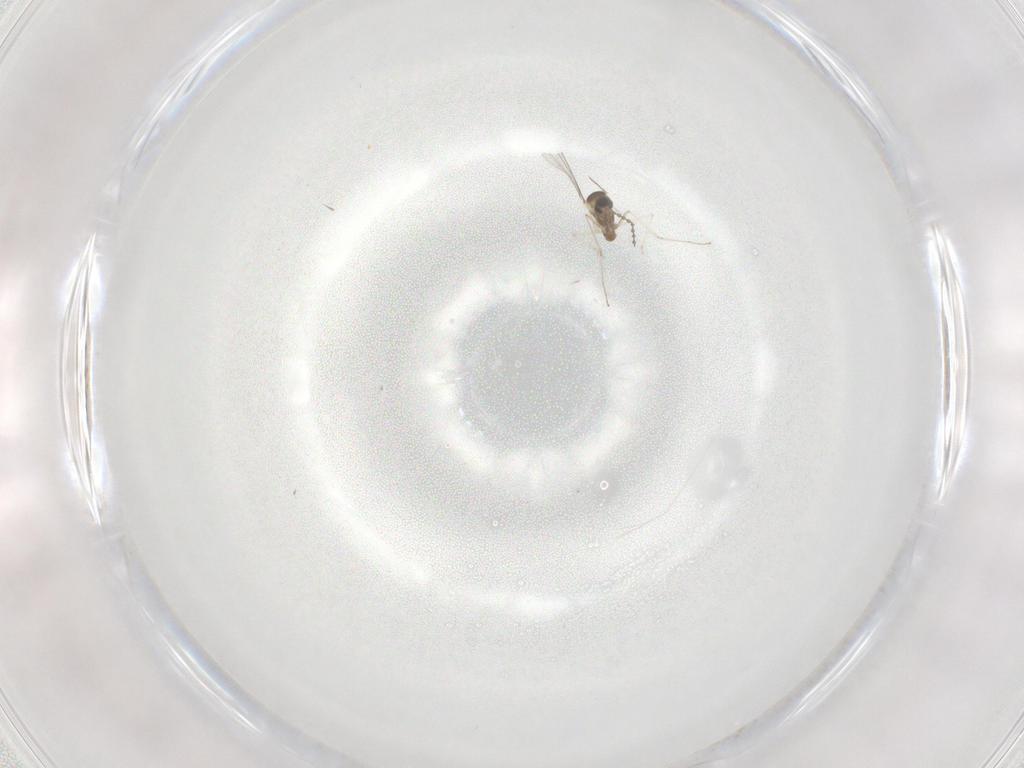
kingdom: Animalia
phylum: Arthropoda
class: Insecta
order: Diptera
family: Cecidomyiidae
